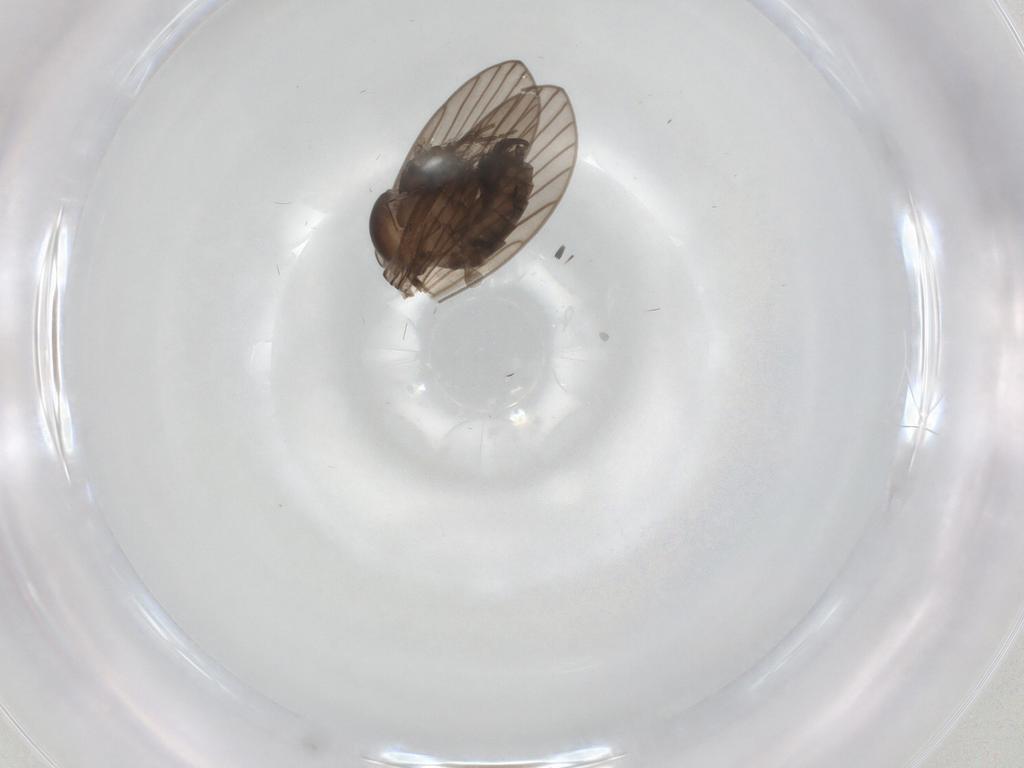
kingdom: Animalia
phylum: Arthropoda
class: Insecta
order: Diptera
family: Psychodidae
